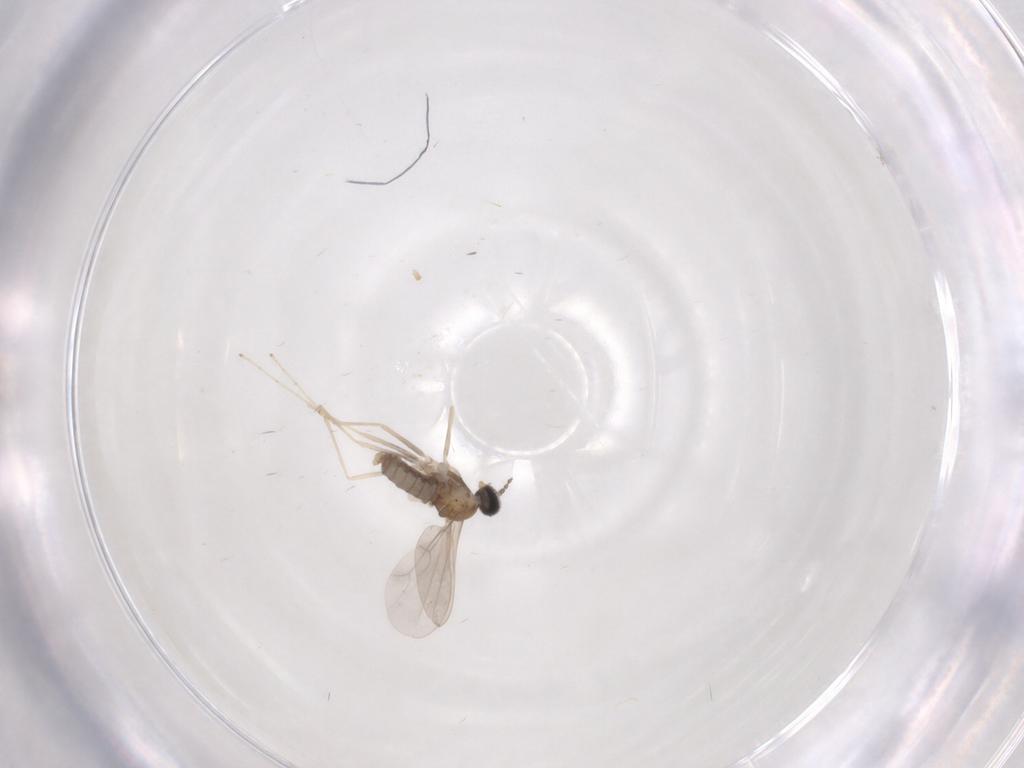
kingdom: Animalia
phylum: Arthropoda
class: Insecta
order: Diptera
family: Cecidomyiidae
